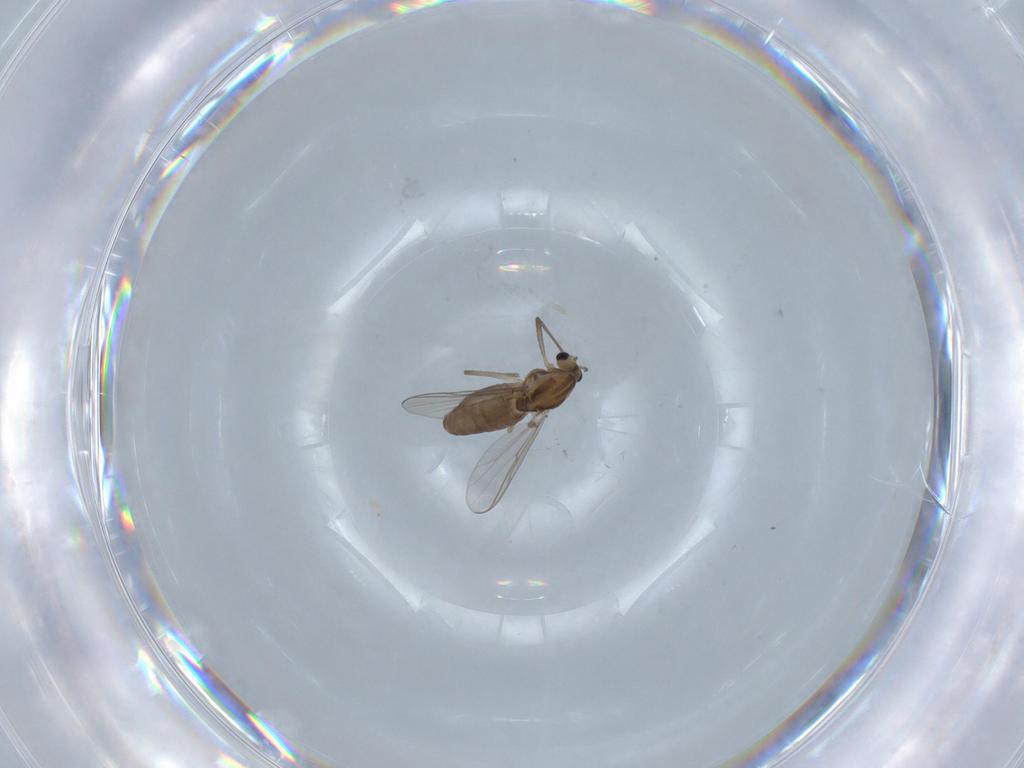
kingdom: Animalia
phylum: Arthropoda
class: Insecta
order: Diptera
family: Chironomidae
